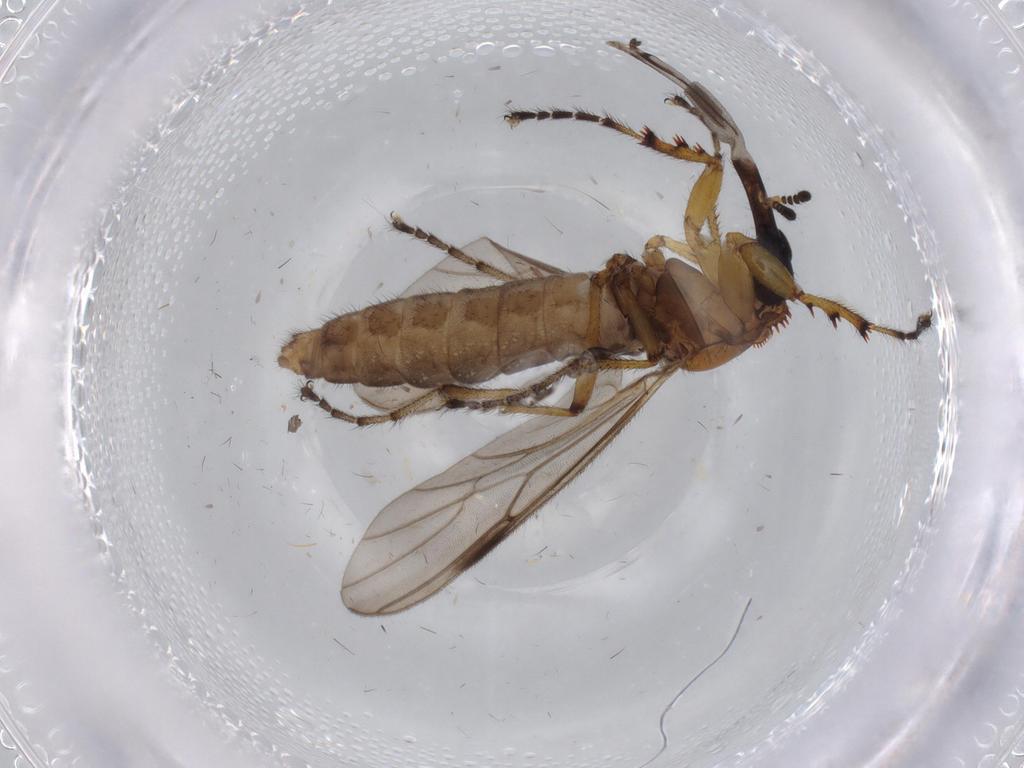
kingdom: Animalia
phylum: Arthropoda
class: Insecta
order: Diptera
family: Bibionidae
